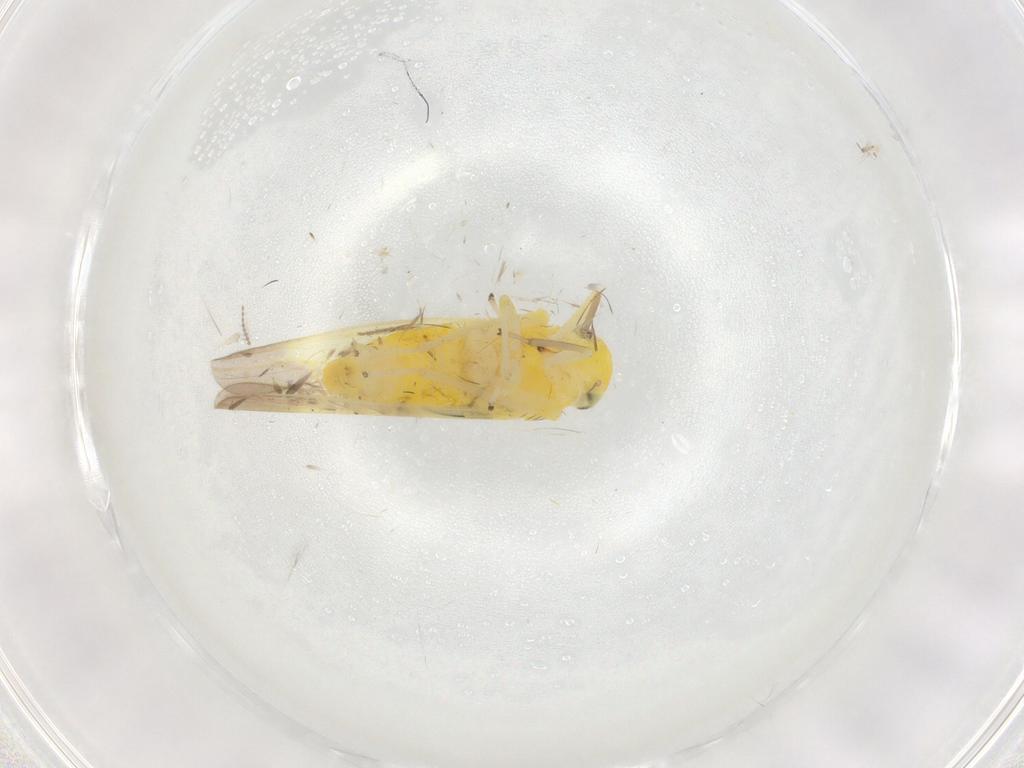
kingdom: Animalia
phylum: Arthropoda
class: Insecta
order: Hemiptera
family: Cicadellidae
